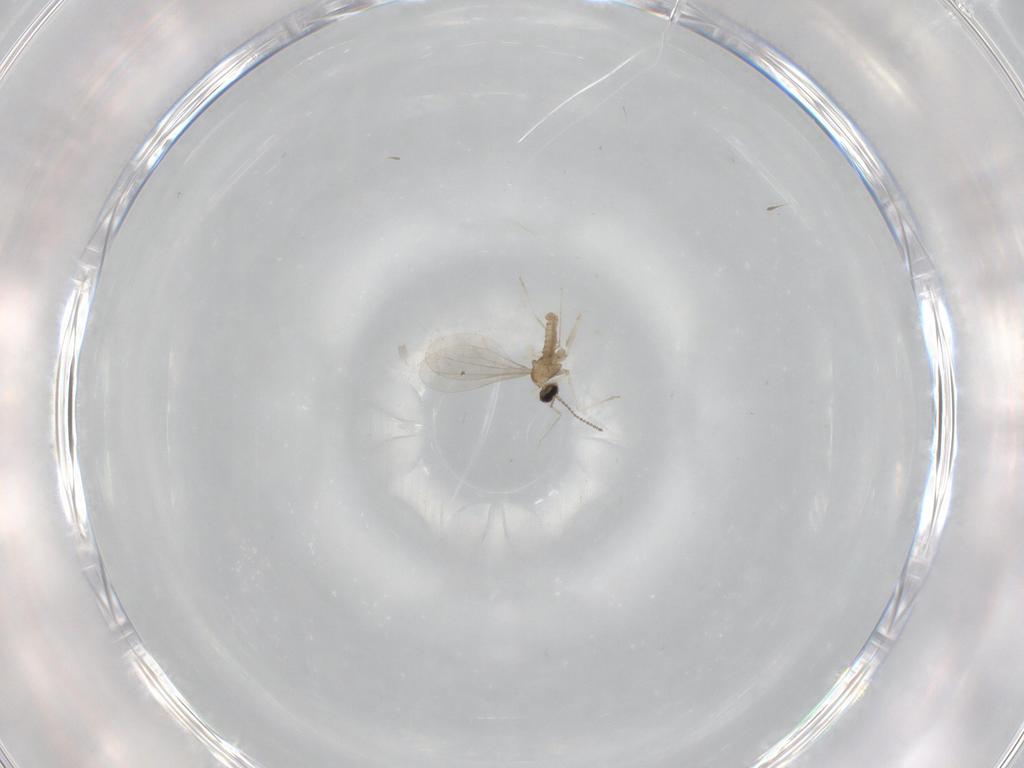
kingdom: Animalia
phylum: Arthropoda
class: Insecta
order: Diptera
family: Cecidomyiidae
